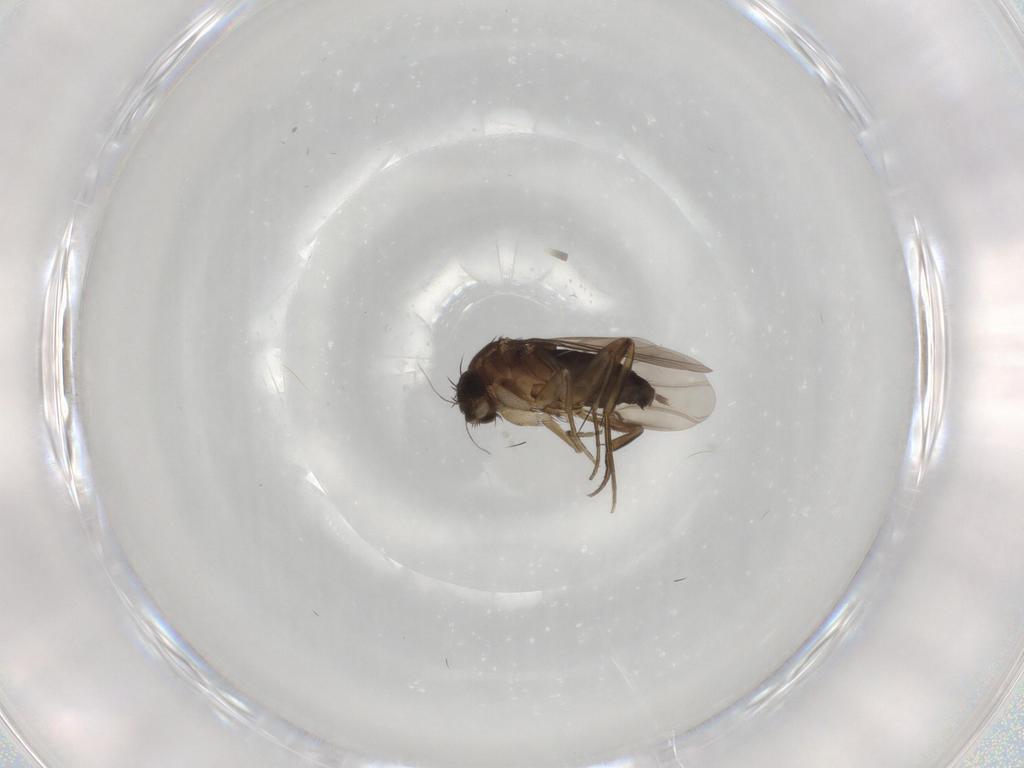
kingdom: Animalia
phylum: Arthropoda
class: Insecta
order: Diptera
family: Phoridae
